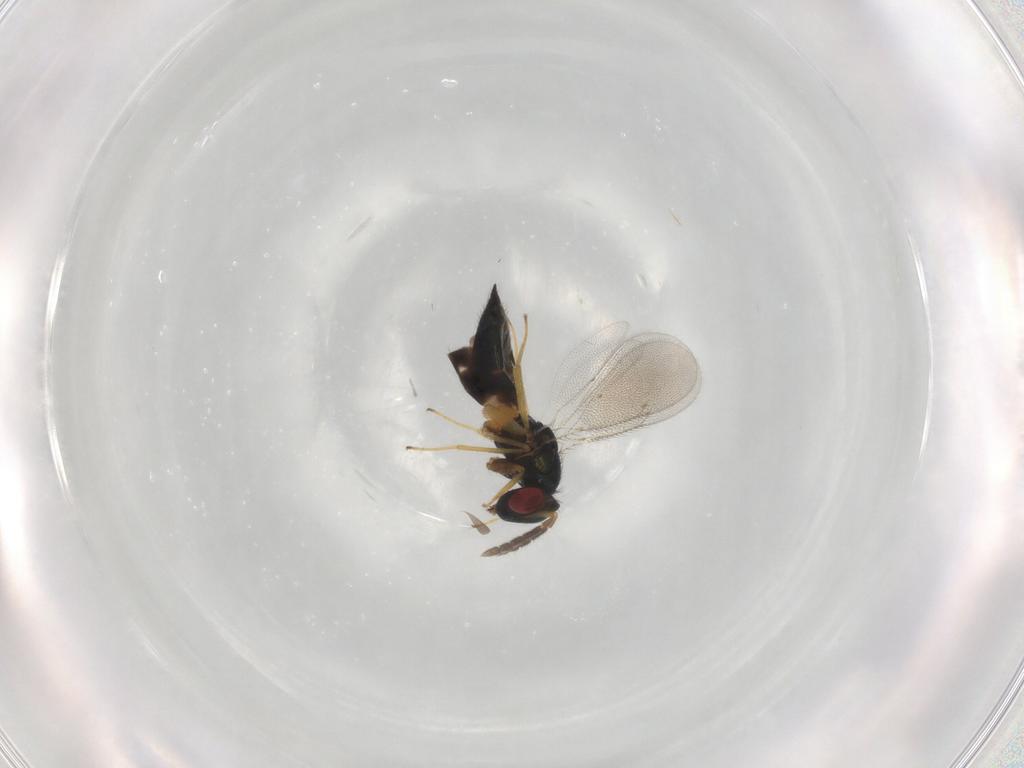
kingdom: Animalia
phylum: Arthropoda
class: Insecta
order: Hymenoptera
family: Eulophidae
